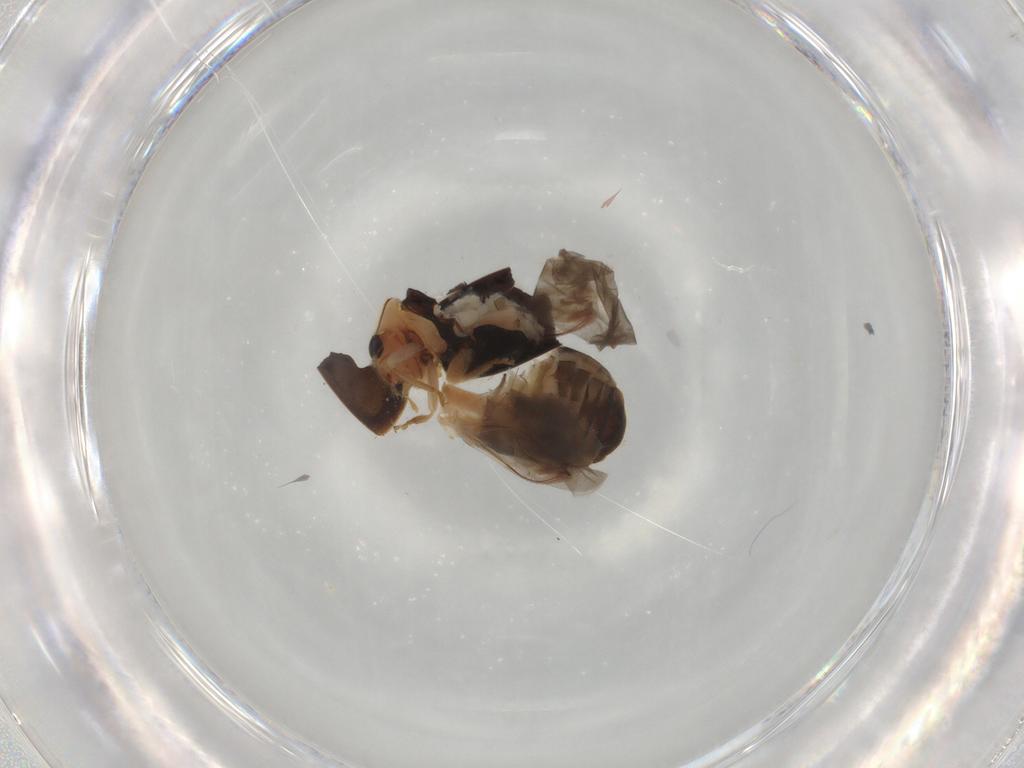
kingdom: Animalia
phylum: Arthropoda
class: Insecta
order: Coleoptera
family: Coccinellidae
